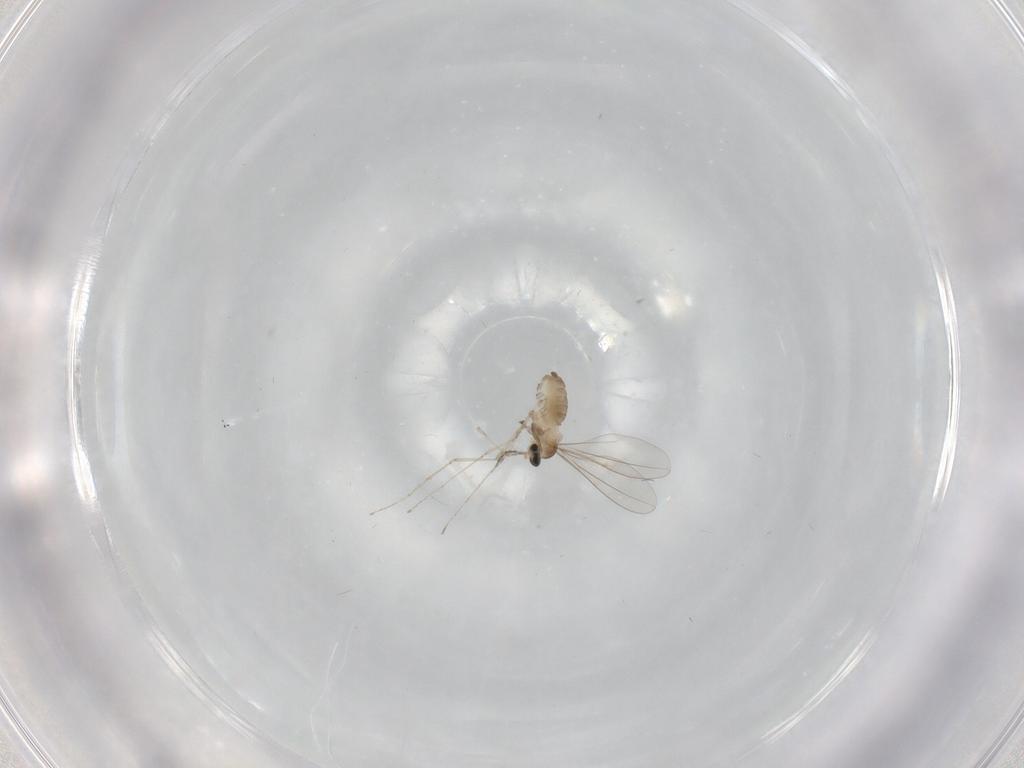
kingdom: Animalia
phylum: Arthropoda
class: Insecta
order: Diptera
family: Cecidomyiidae
